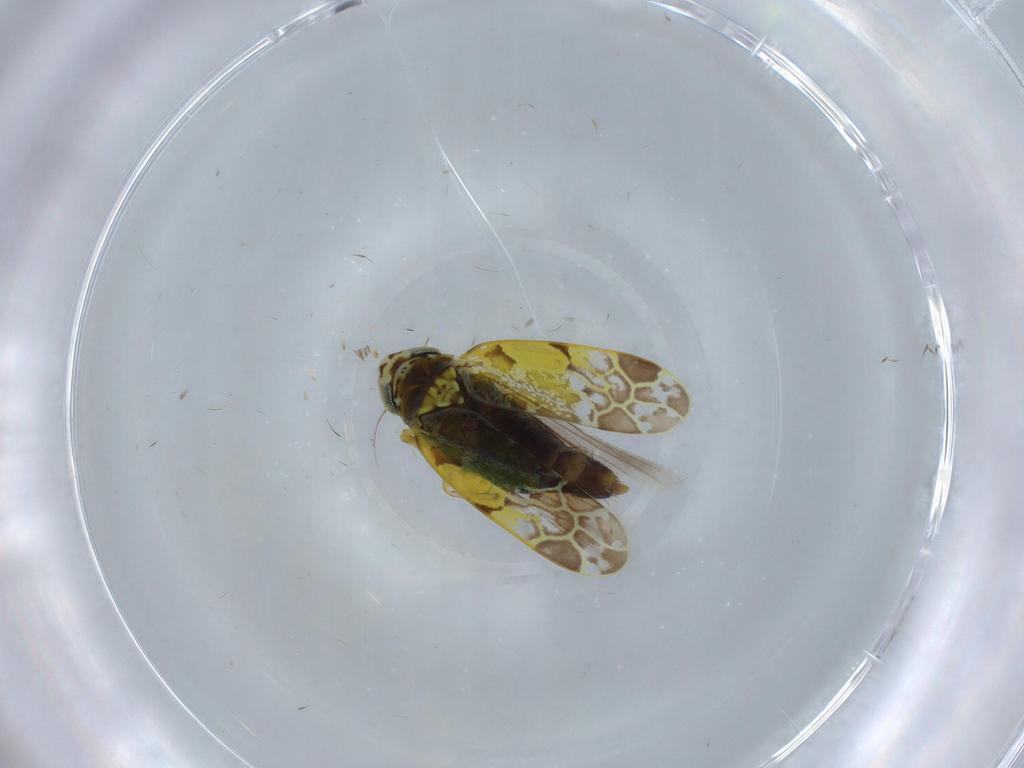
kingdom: Animalia
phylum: Arthropoda
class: Insecta
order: Hemiptera
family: Cicadellidae
